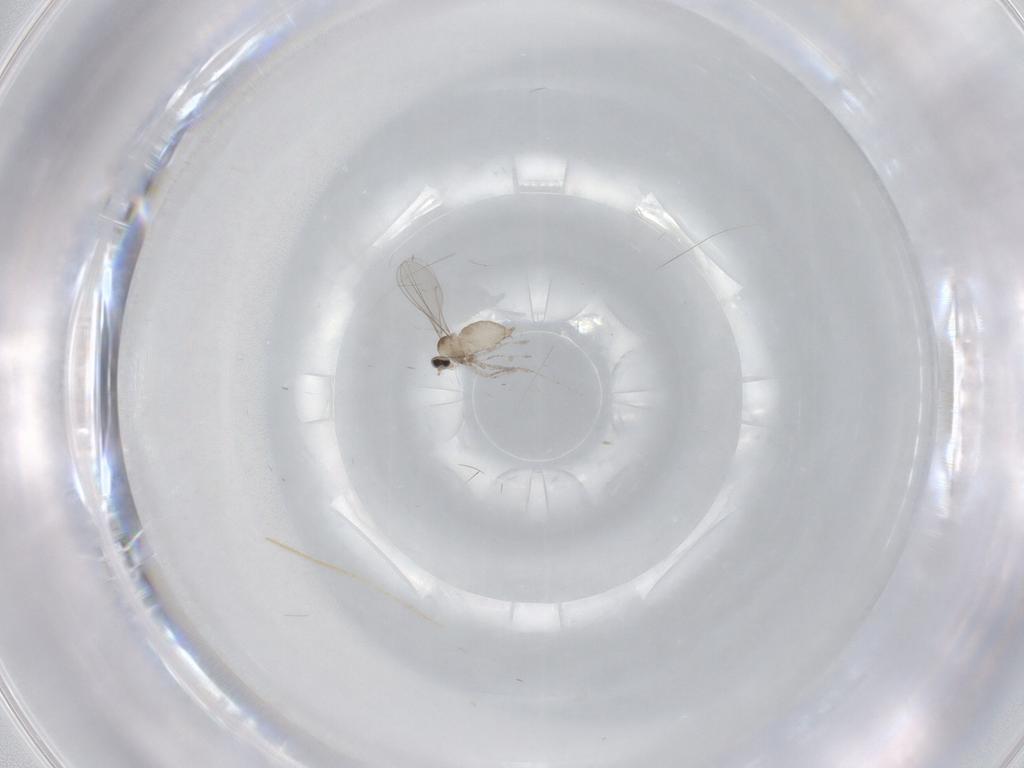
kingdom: Animalia
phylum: Arthropoda
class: Insecta
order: Diptera
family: Cecidomyiidae
